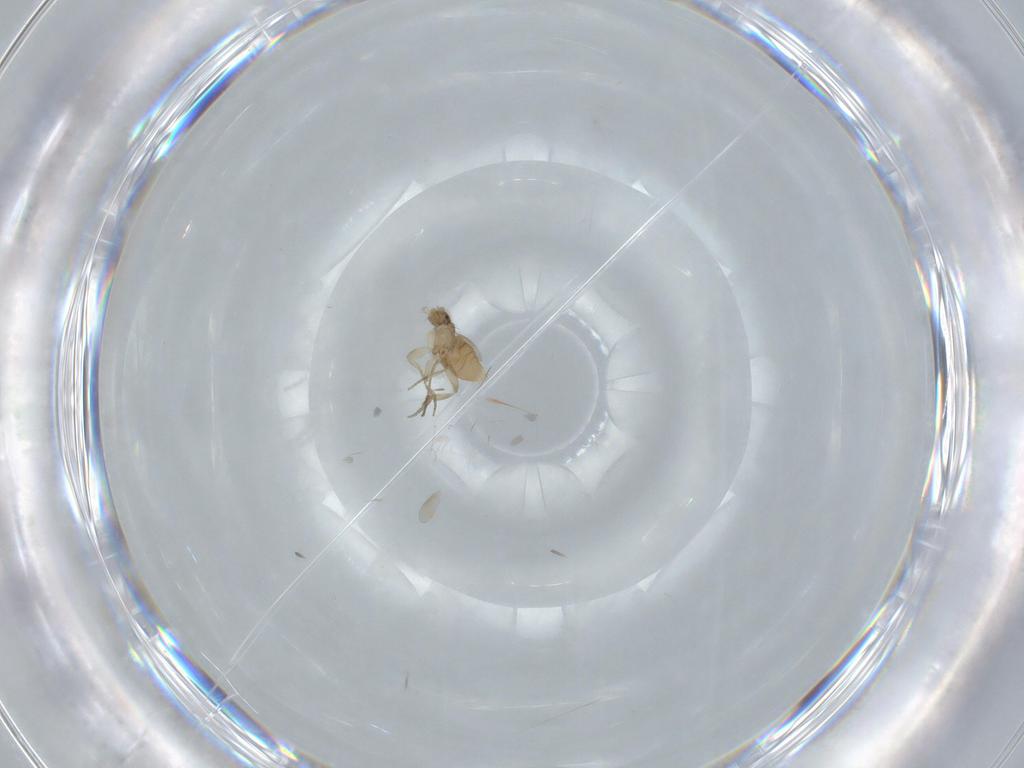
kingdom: Animalia
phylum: Arthropoda
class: Insecta
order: Diptera
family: Phoridae
